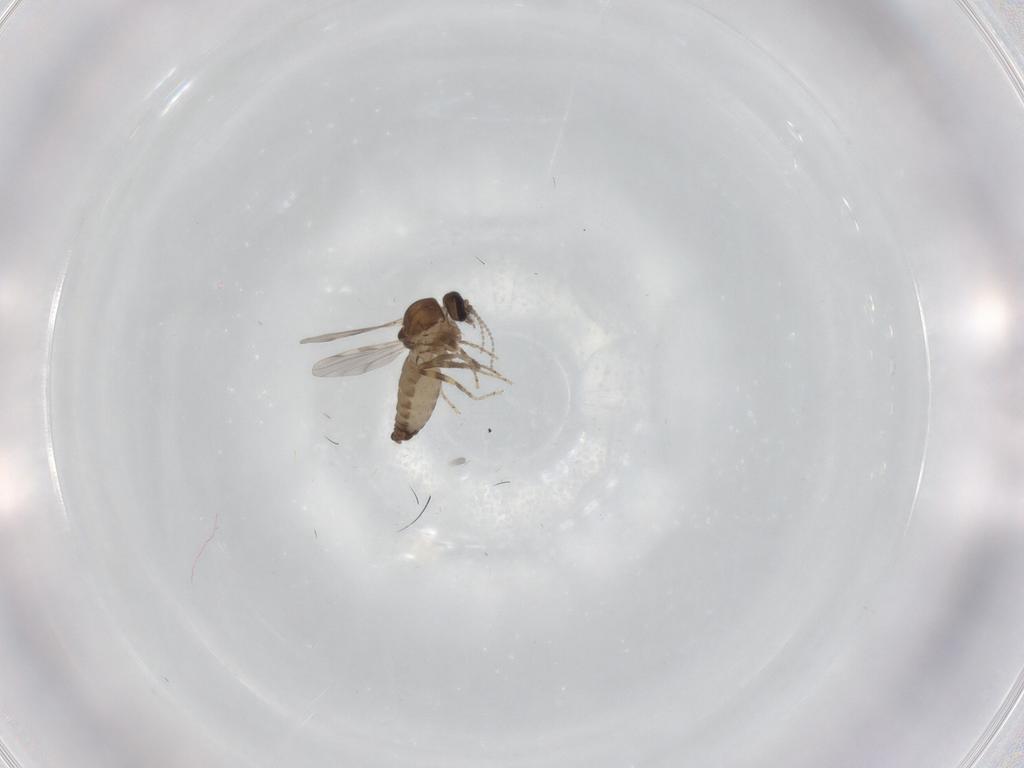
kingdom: Animalia
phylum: Arthropoda
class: Insecta
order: Diptera
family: Ceratopogonidae
